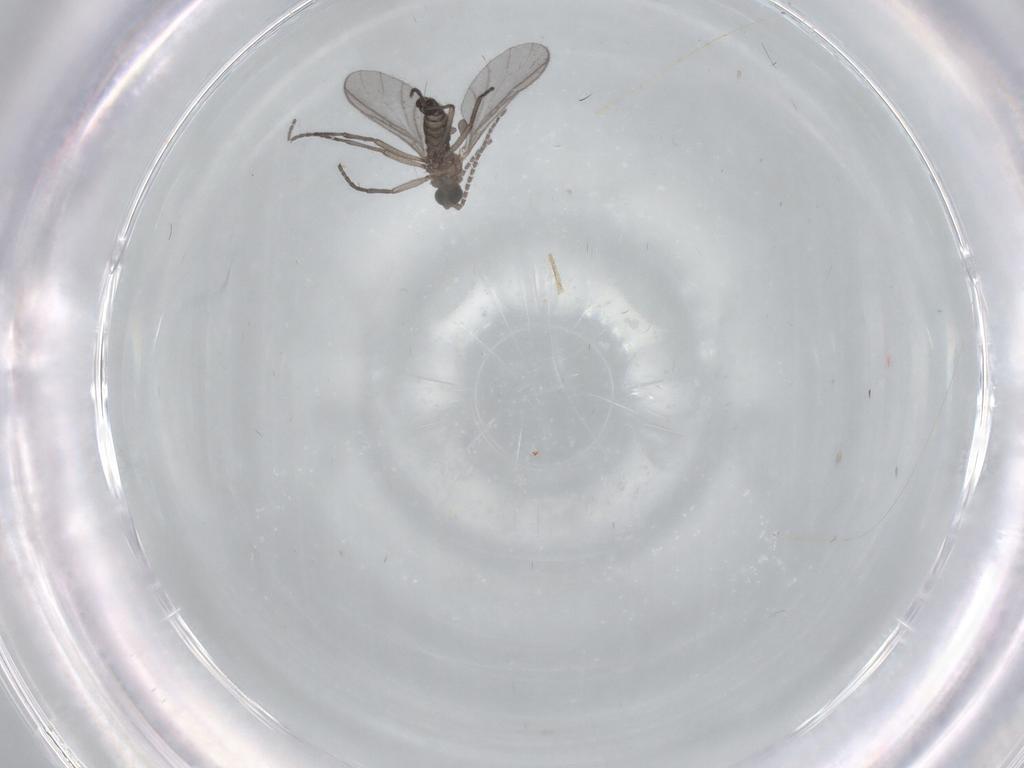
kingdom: Animalia
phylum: Arthropoda
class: Insecta
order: Diptera
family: Sciaridae
